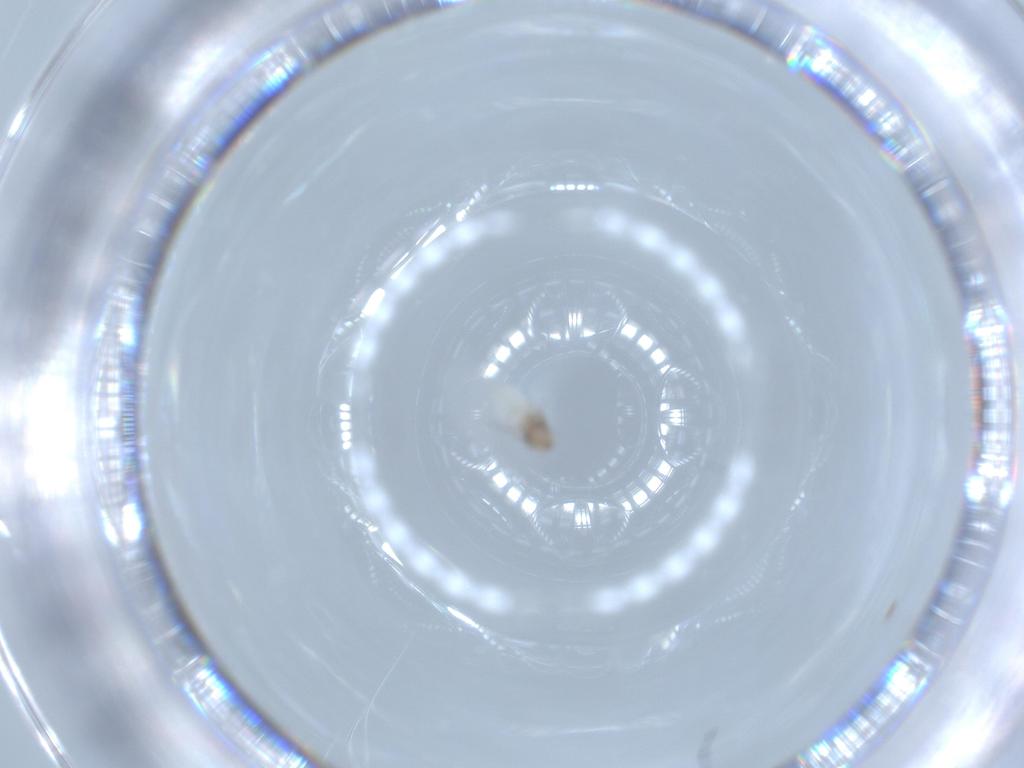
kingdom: Animalia
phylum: Arthropoda
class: Insecta
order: Psocodea
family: Lepidopsocidae
